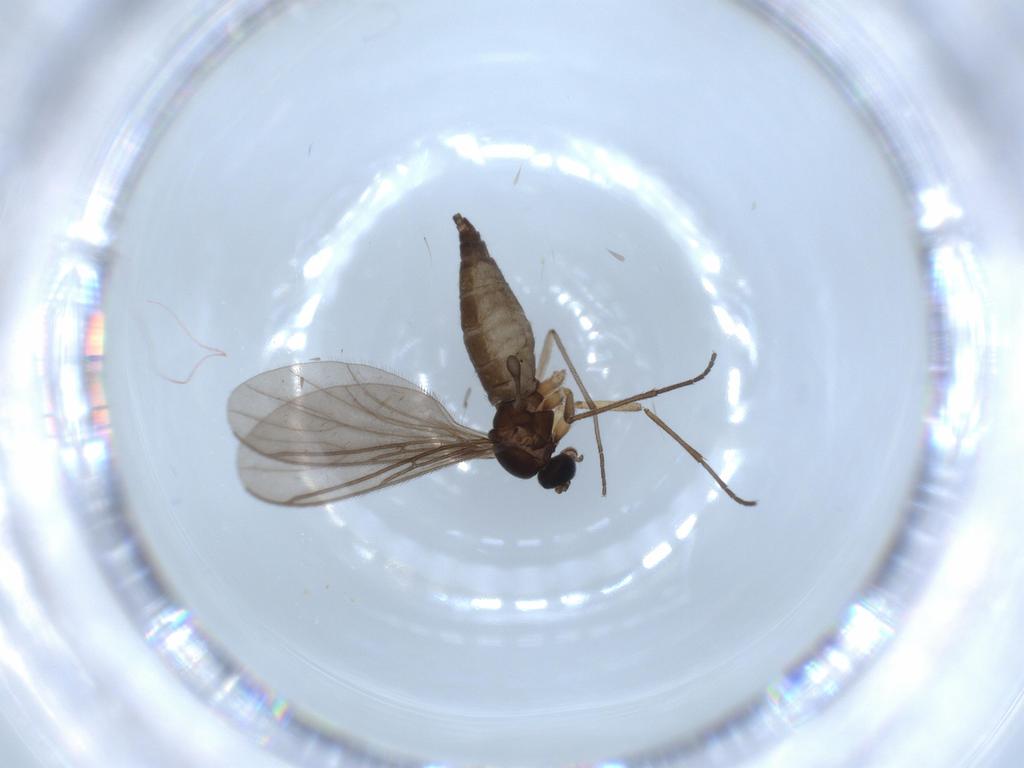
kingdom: Animalia
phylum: Arthropoda
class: Insecta
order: Diptera
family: Sciaridae
